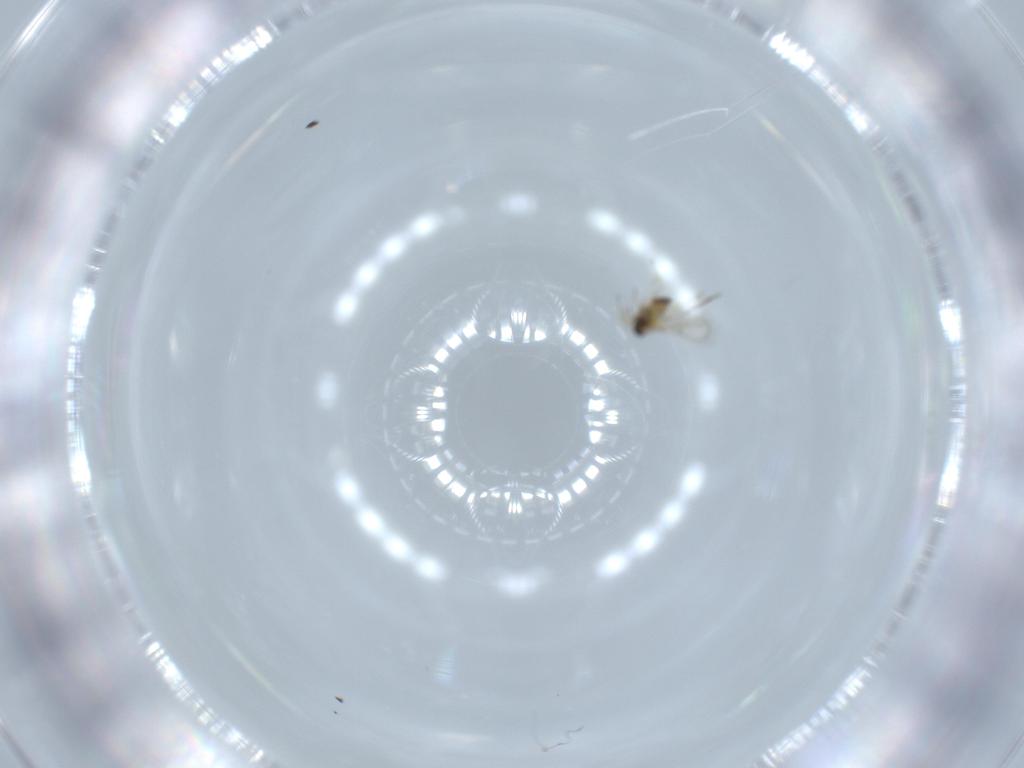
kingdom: Animalia
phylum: Arthropoda
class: Insecta
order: Hymenoptera
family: Trichogrammatidae
